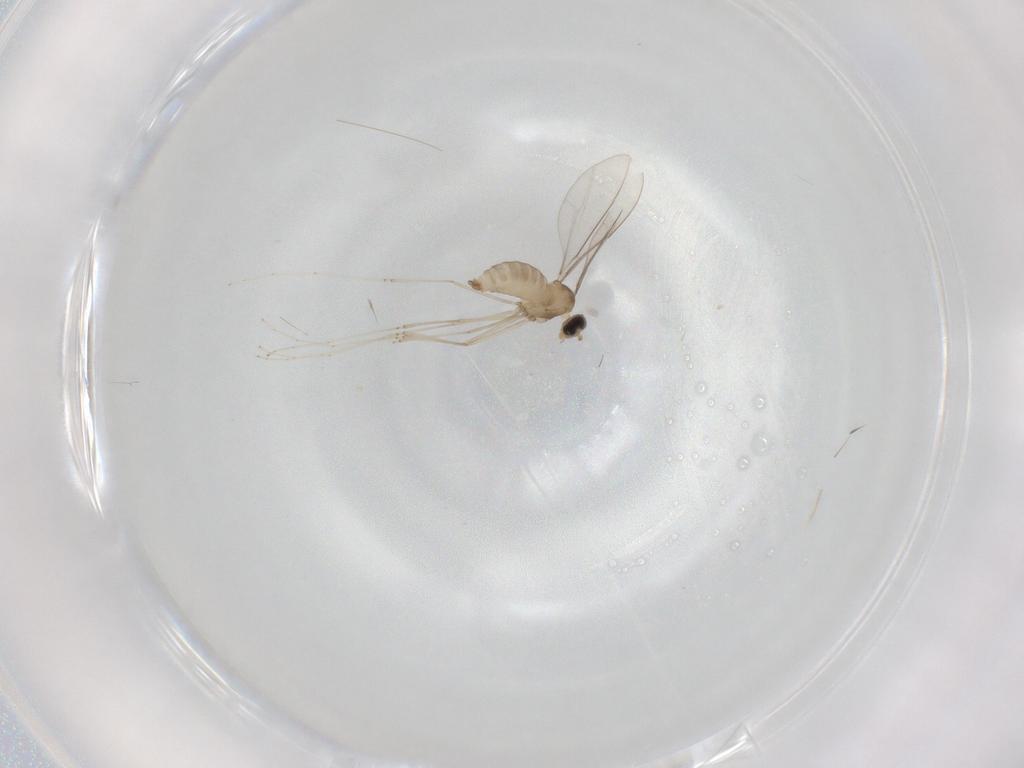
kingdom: Animalia
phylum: Arthropoda
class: Insecta
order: Diptera
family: Cecidomyiidae
